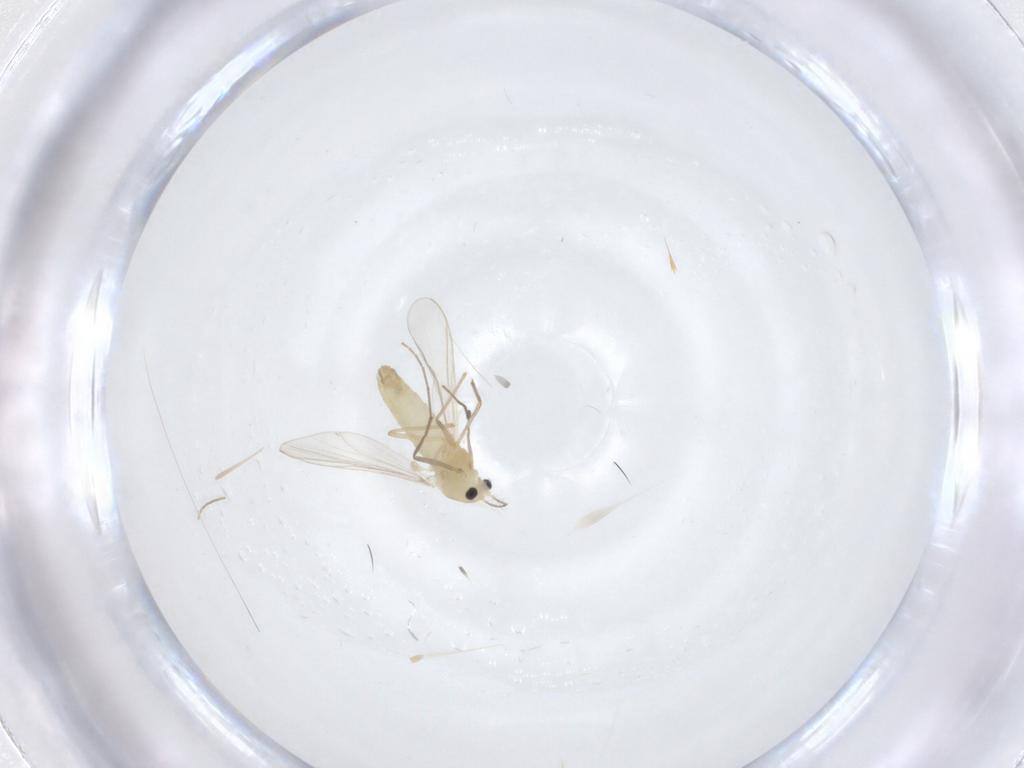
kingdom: Animalia
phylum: Arthropoda
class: Insecta
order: Diptera
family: Chironomidae
